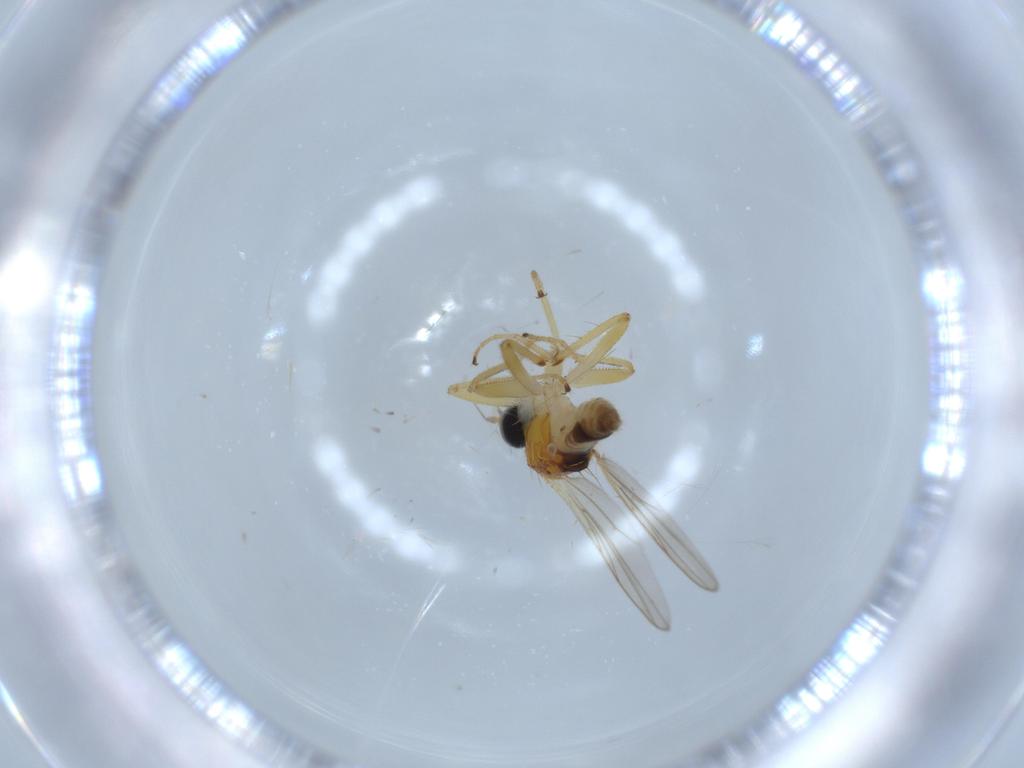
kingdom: Animalia
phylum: Arthropoda
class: Insecta
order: Diptera
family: Hybotidae
